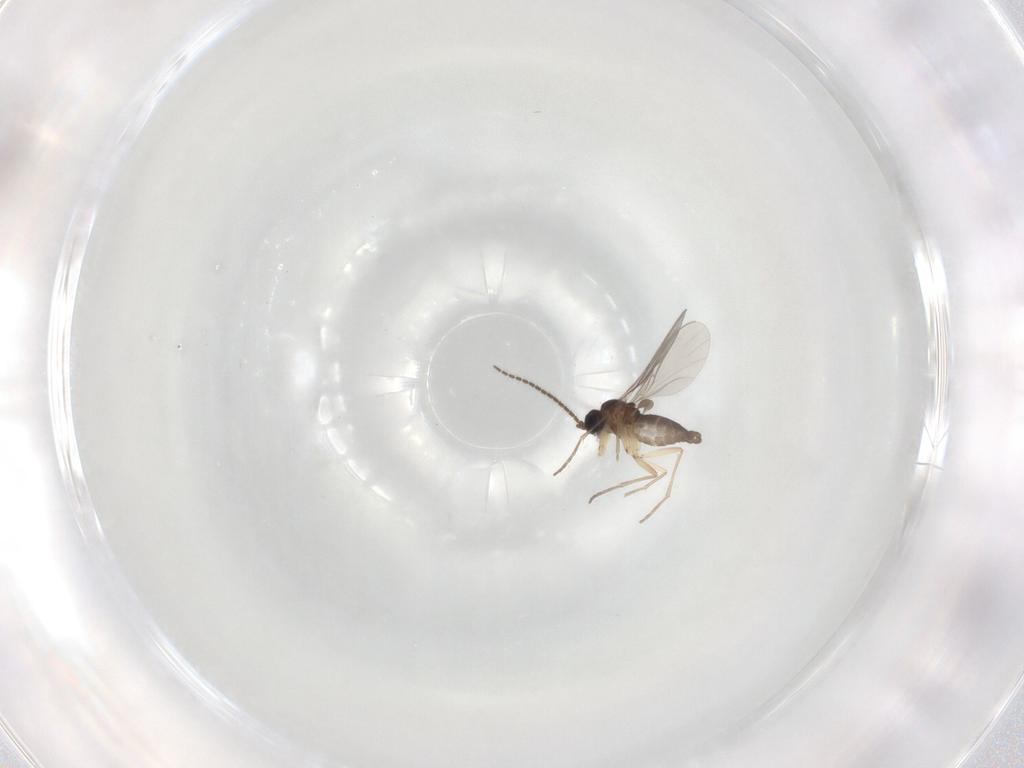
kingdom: Animalia
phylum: Arthropoda
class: Insecta
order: Diptera
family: Sciaridae
